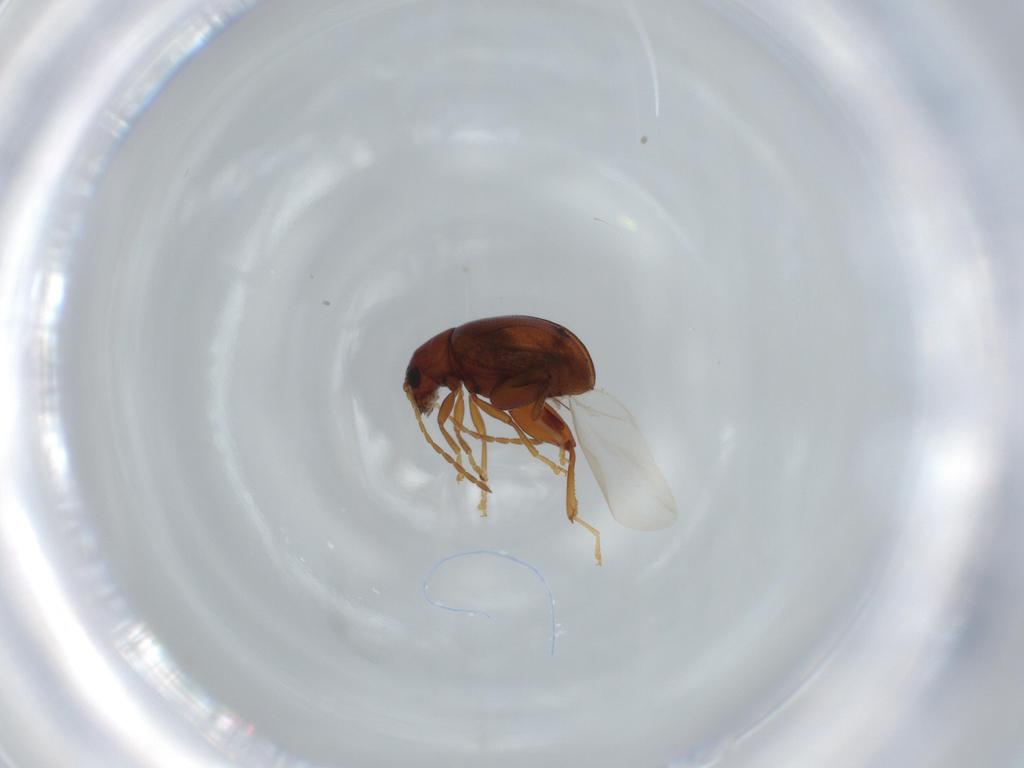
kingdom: Animalia
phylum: Arthropoda
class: Insecta
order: Coleoptera
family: Chrysomelidae
